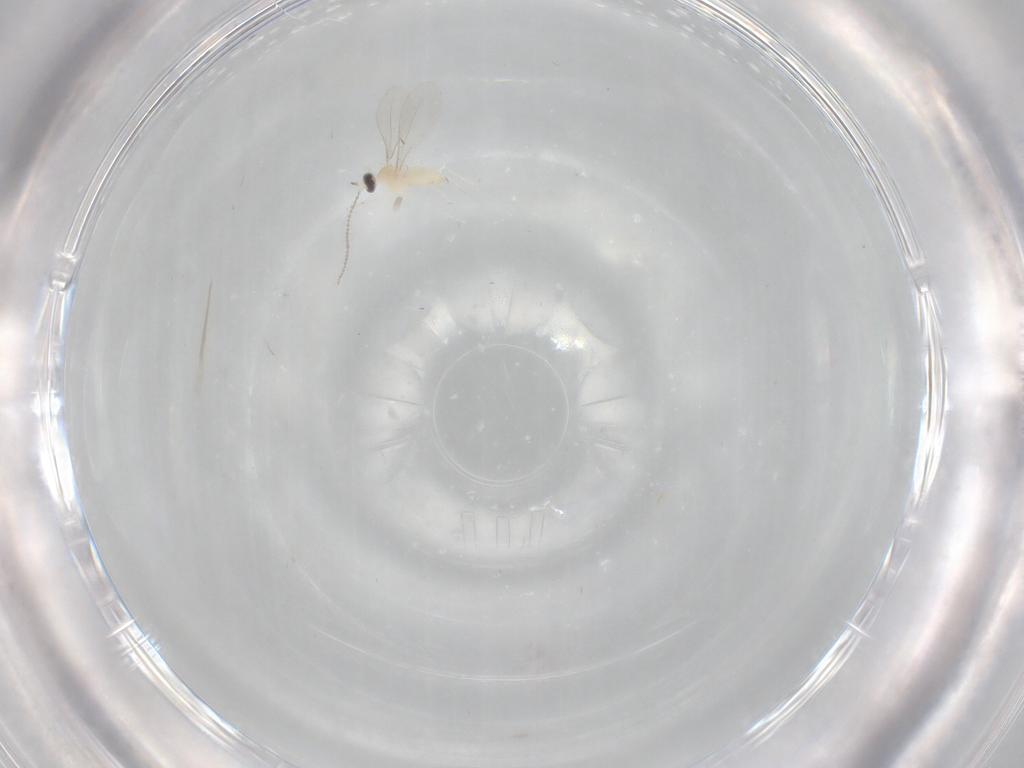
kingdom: Animalia
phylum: Arthropoda
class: Insecta
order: Diptera
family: Cecidomyiidae
